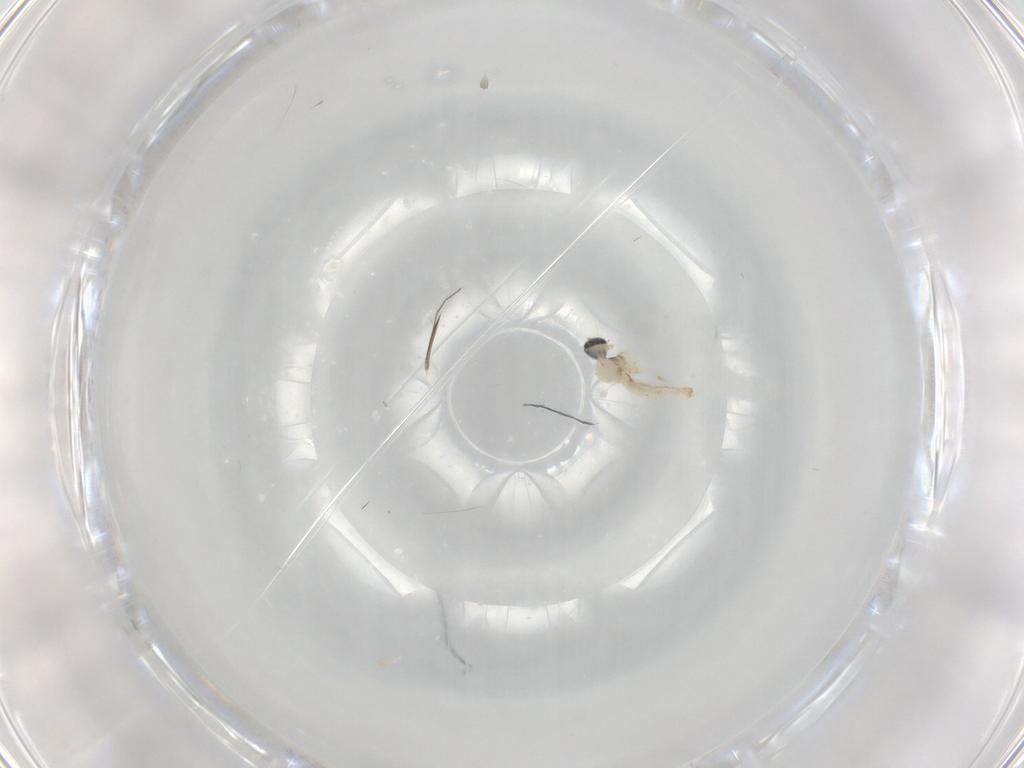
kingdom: Animalia
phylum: Arthropoda
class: Insecta
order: Diptera
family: Cecidomyiidae
